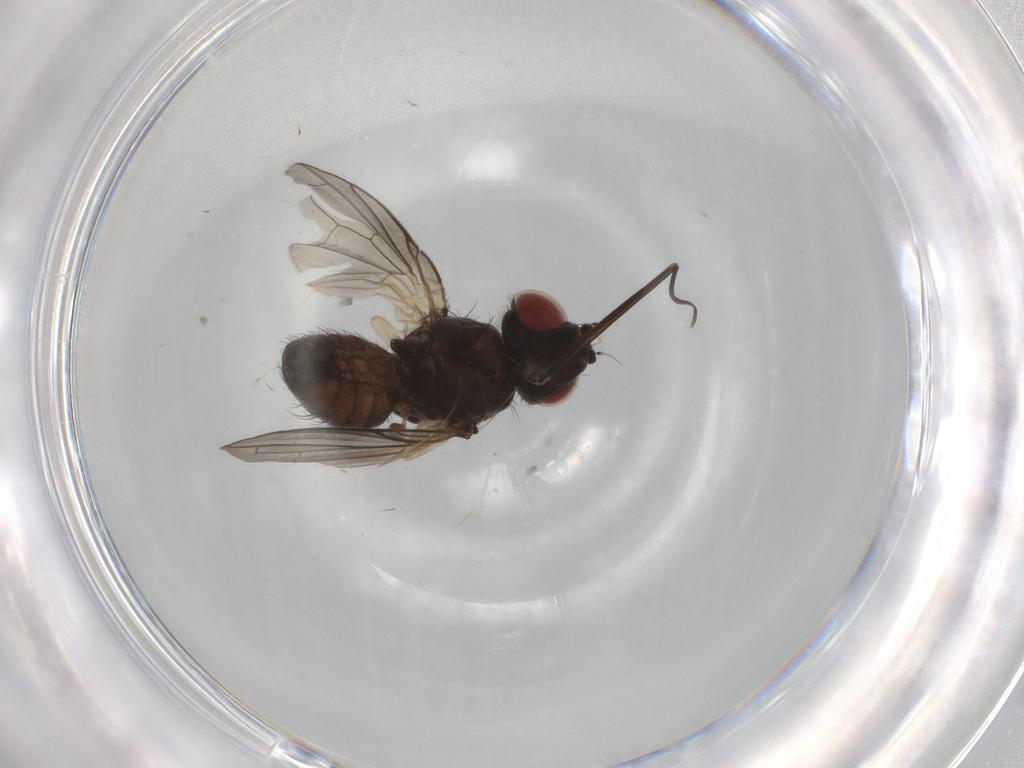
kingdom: Animalia
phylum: Arthropoda
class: Insecta
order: Diptera
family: Tachinidae
